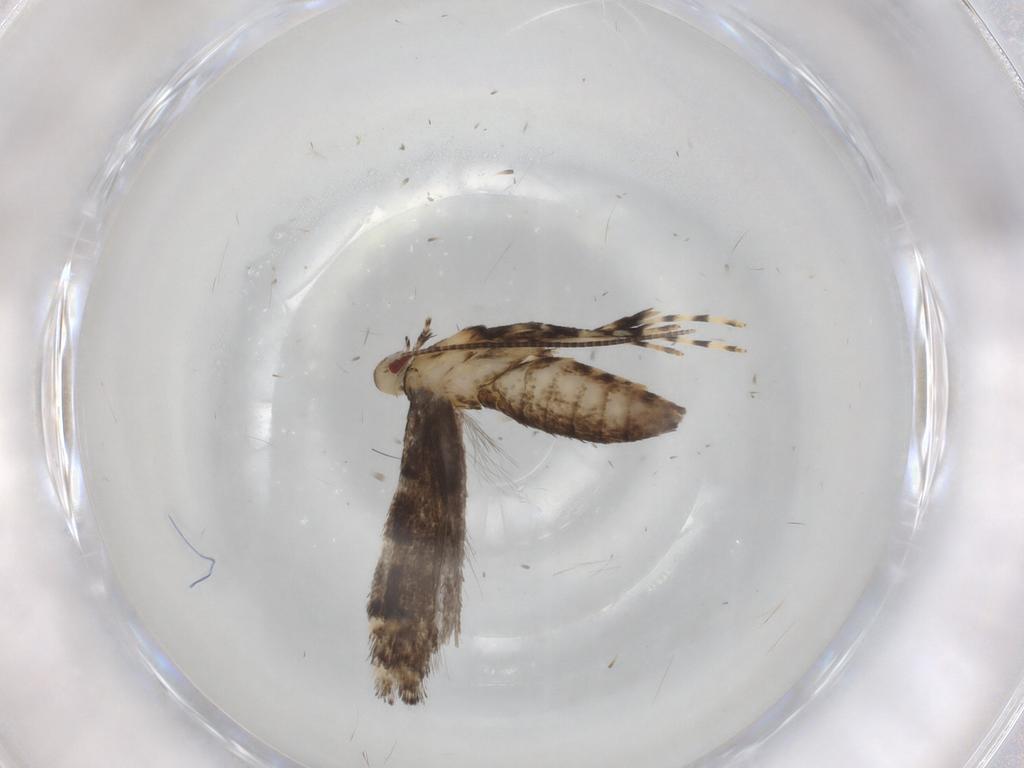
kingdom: Animalia
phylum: Arthropoda
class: Insecta
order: Lepidoptera
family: Gracillariidae
